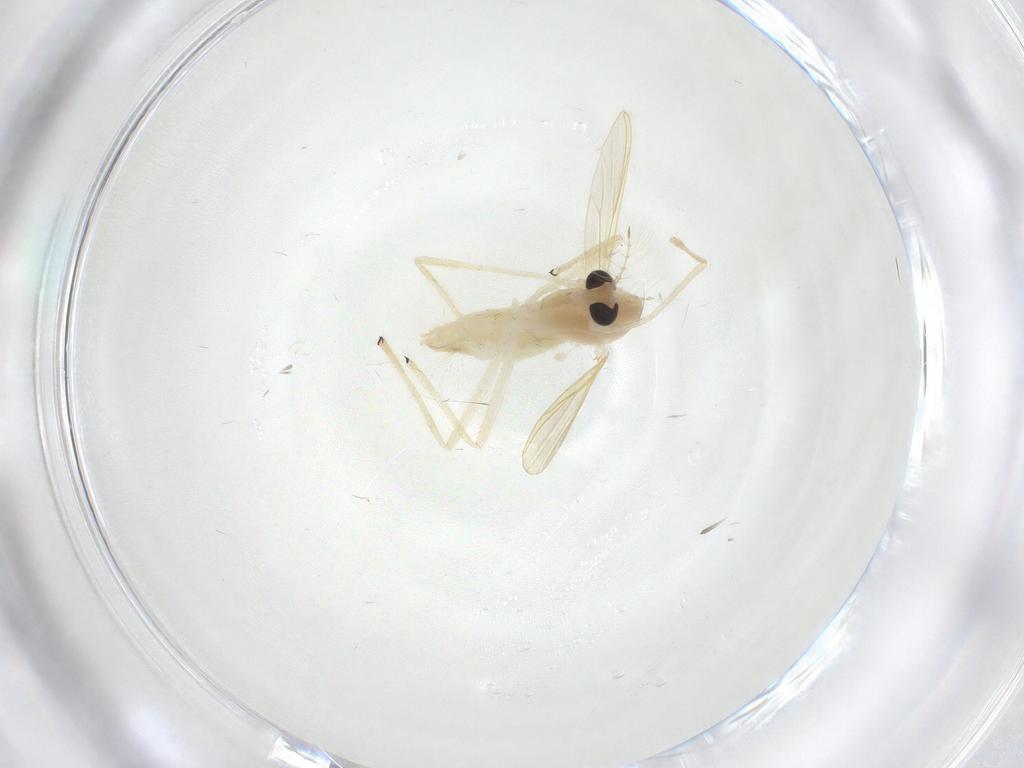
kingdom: Animalia
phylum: Arthropoda
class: Insecta
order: Diptera
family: Chironomidae
